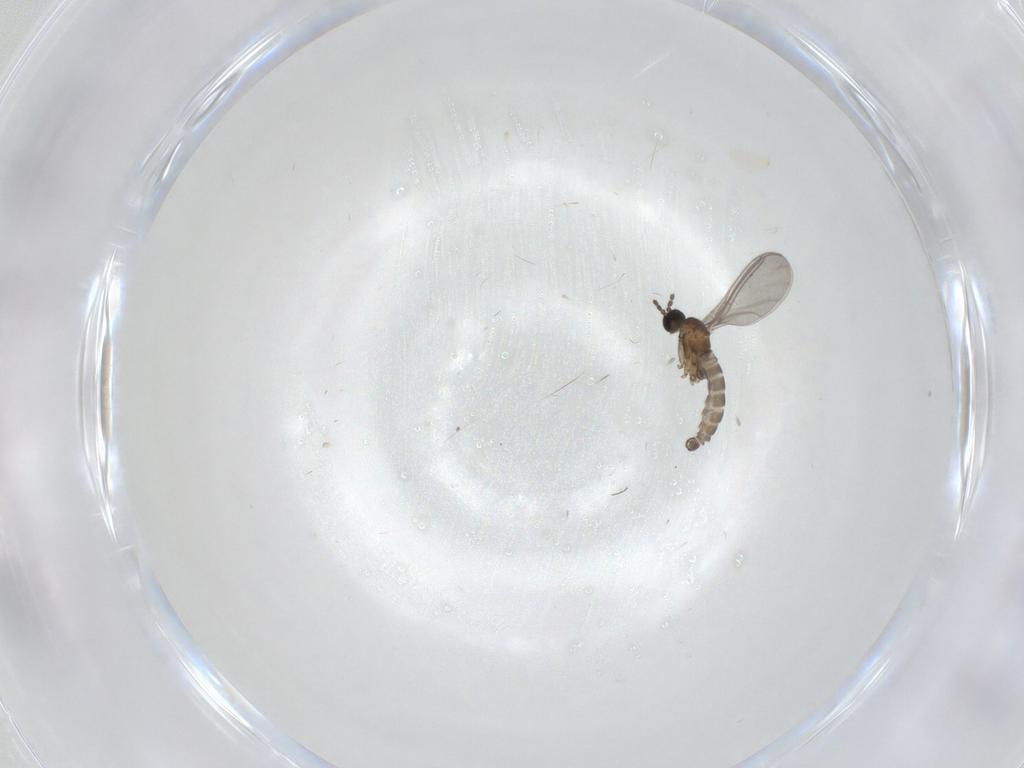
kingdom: Animalia
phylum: Arthropoda
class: Insecta
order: Diptera
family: Sciaridae
